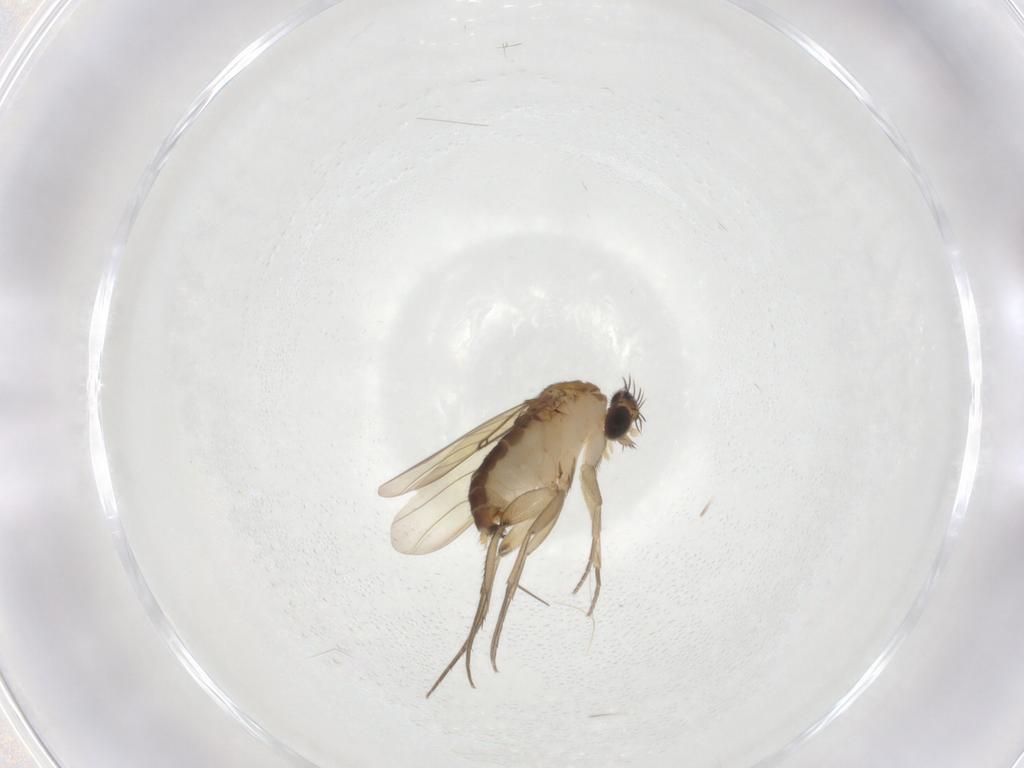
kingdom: Animalia
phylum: Arthropoda
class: Insecta
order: Diptera
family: Phoridae
